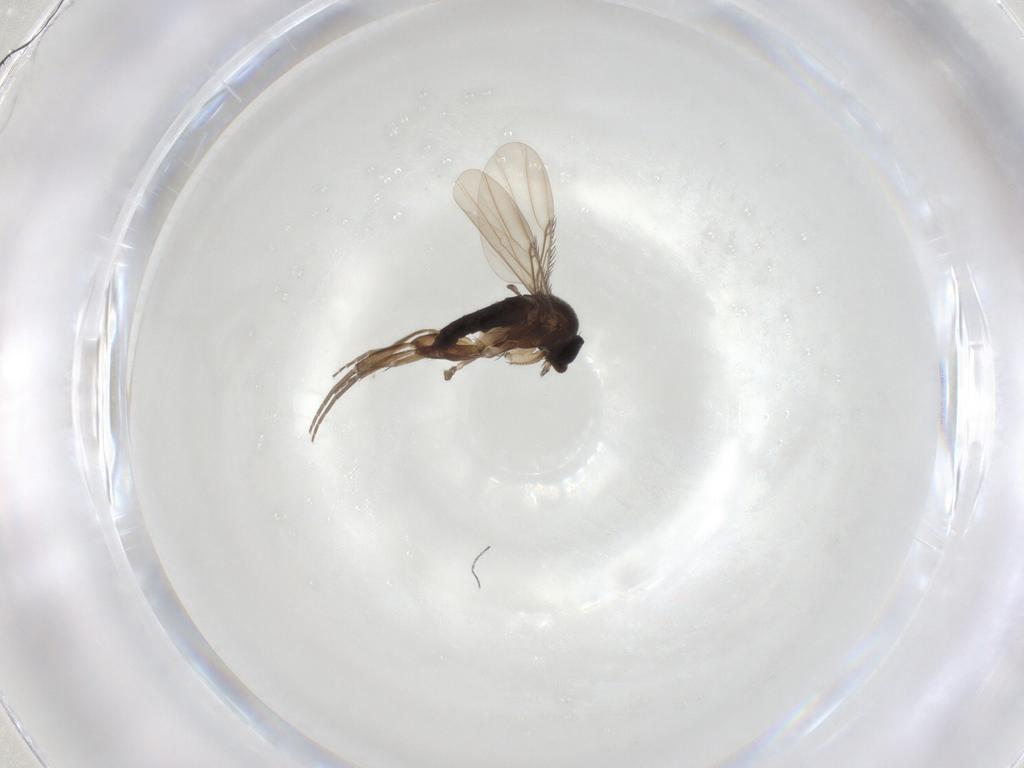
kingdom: Animalia
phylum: Arthropoda
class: Insecta
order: Diptera
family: Phoridae
